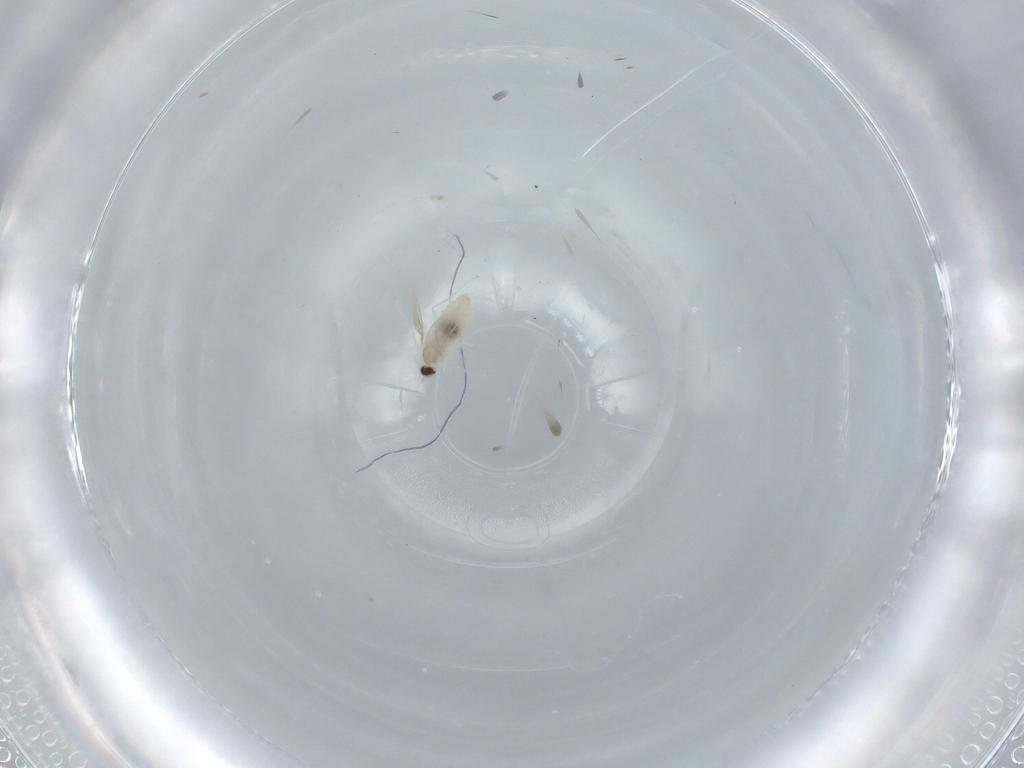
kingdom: Animalia
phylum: Arthropoda
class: Insecta
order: Diptera
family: Cecidomyiidae
